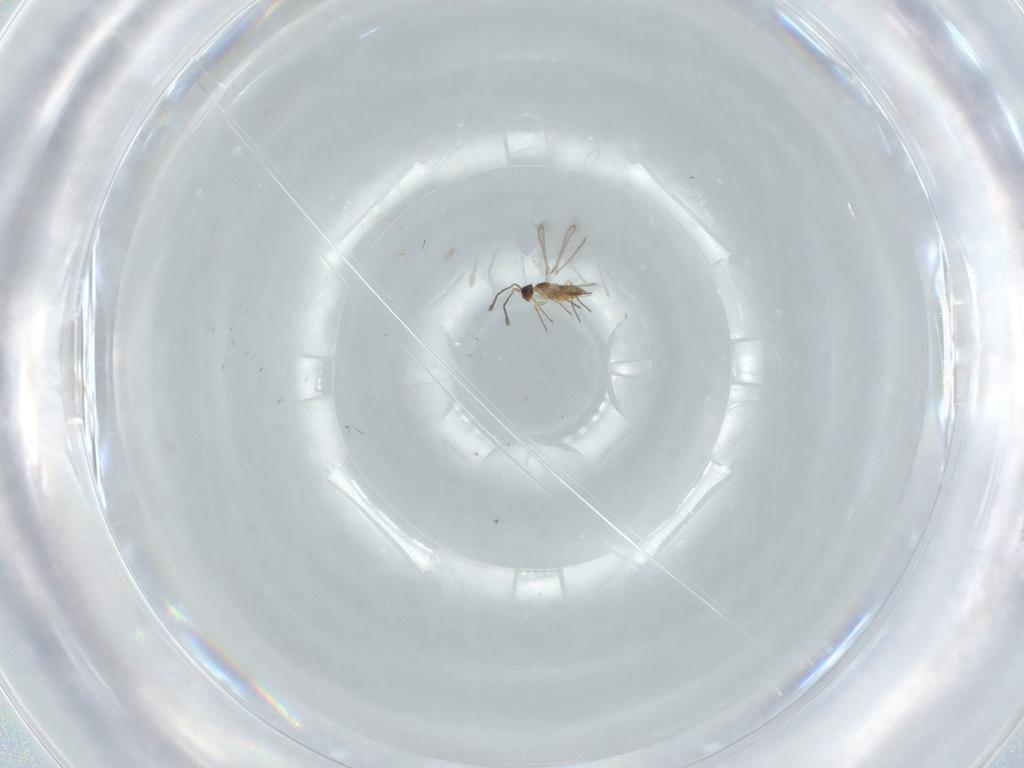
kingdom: Animalia
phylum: Arthropoda
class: Insecta
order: Hymenoptera
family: Mymaridae
